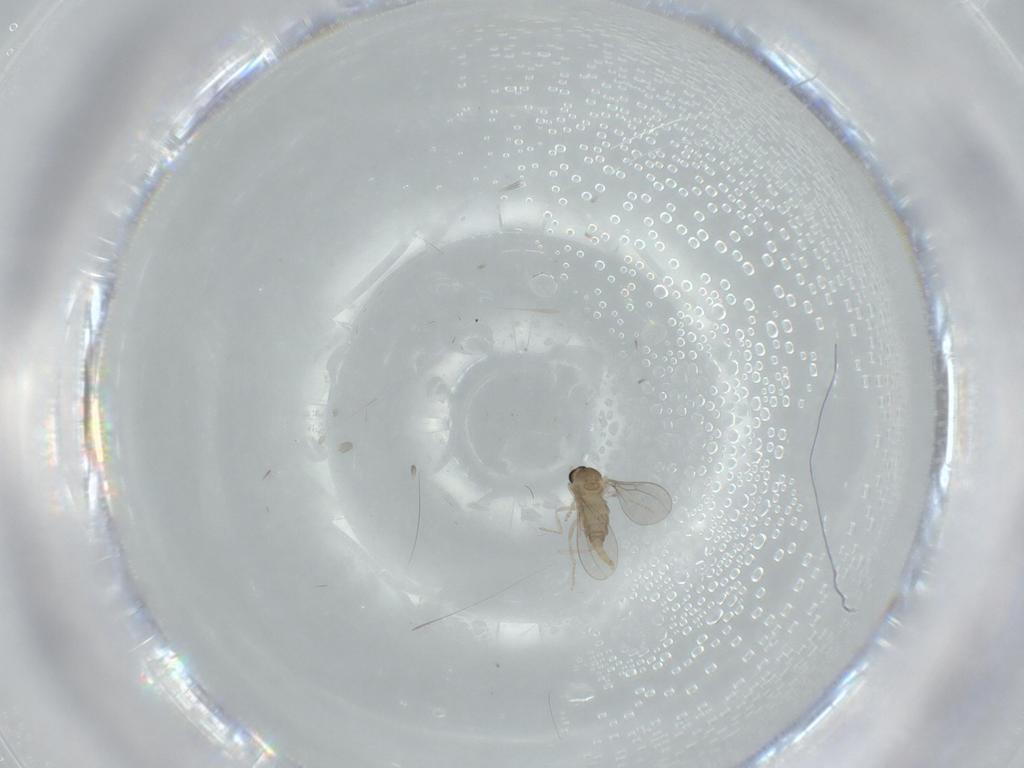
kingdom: Animalia
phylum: Arthropoda
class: Insecta
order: Diptera
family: Cecidomyiidae
